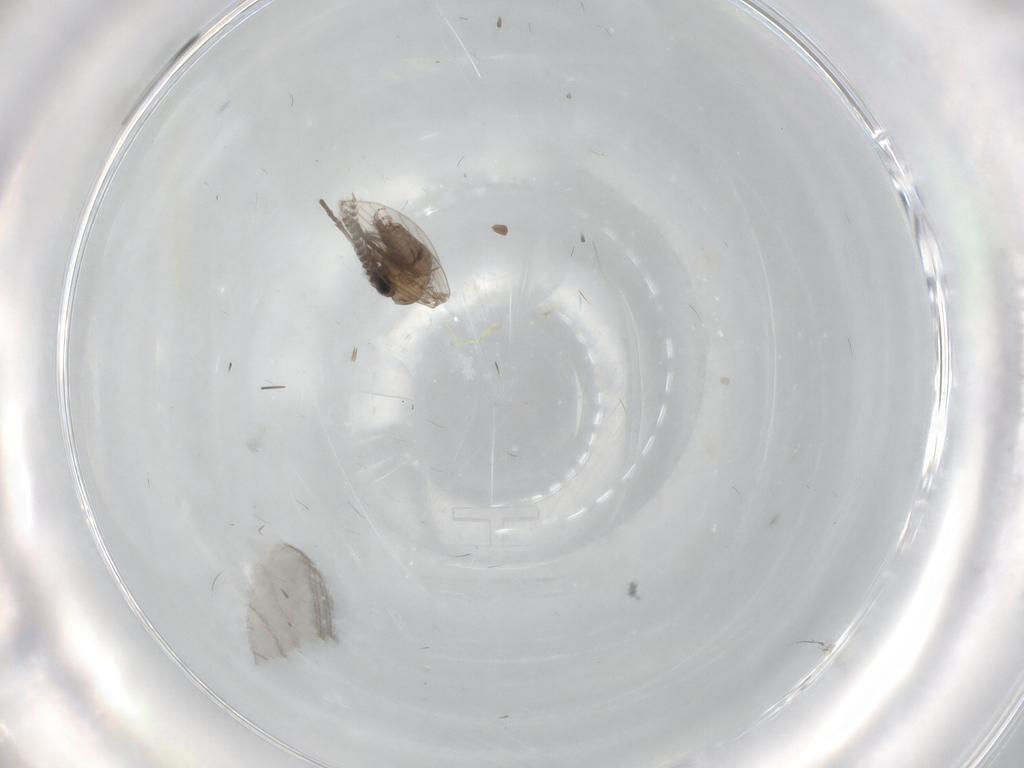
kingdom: Animalia
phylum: Arthropoda
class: Insecta
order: Diptera
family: Psychodidae
